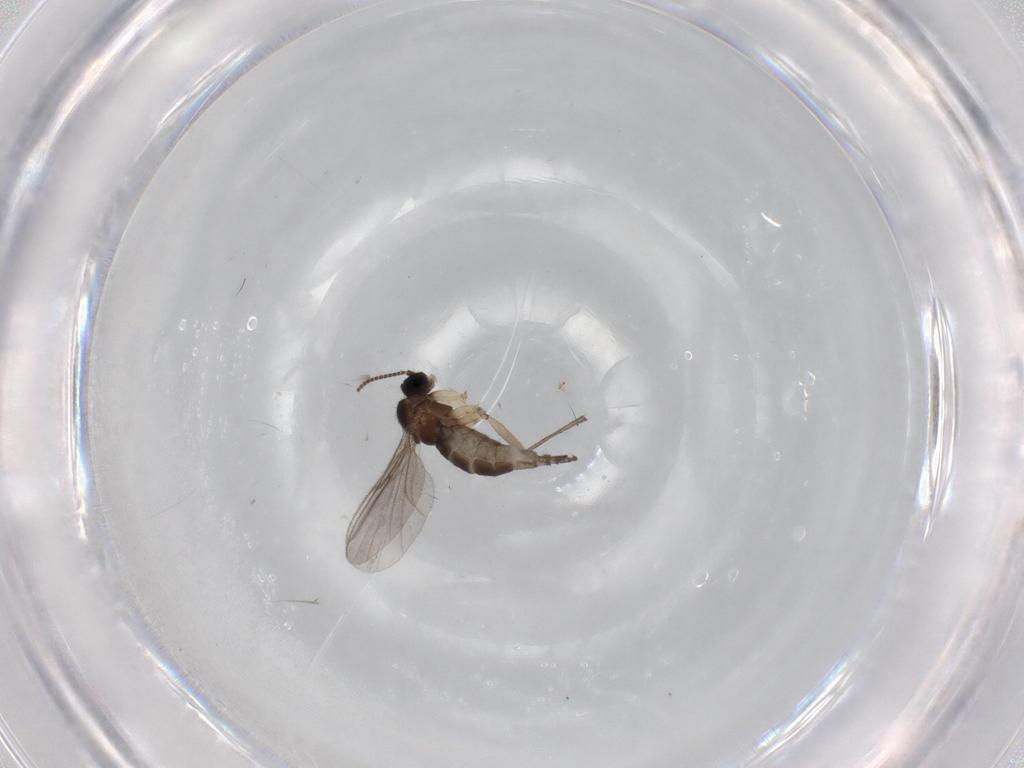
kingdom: Animalia
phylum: Arthropoda
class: Insecta
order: Diptera
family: Sciaridae
